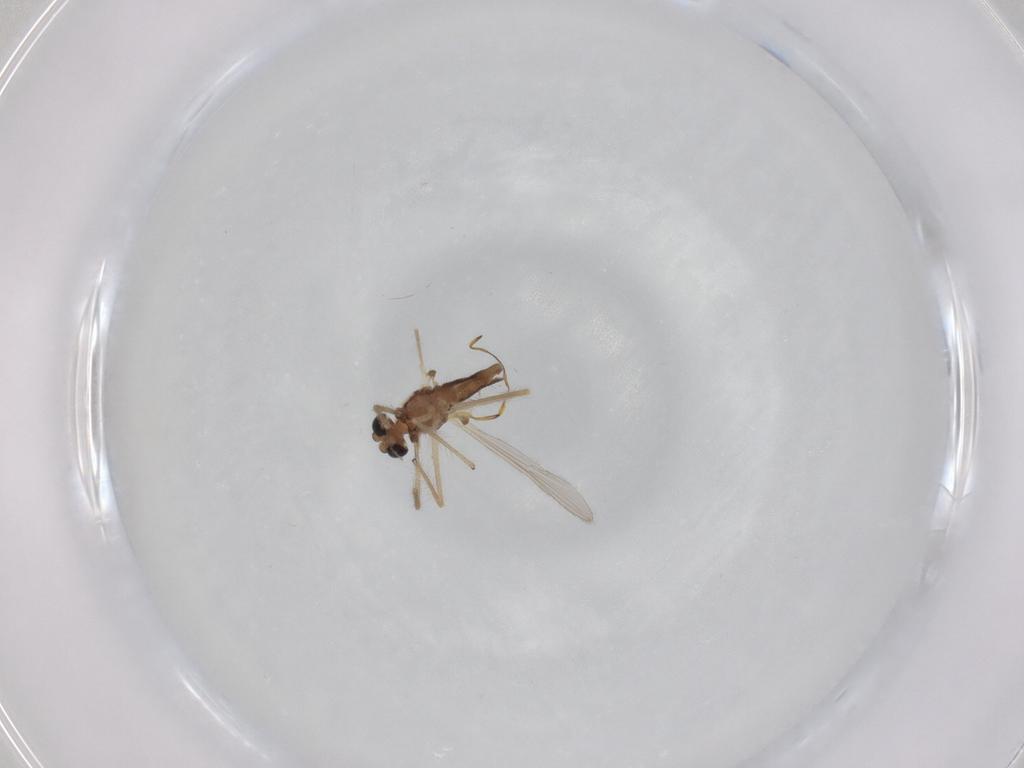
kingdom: Animalia
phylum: Arthropoda
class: Insecta
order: Diptera
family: Chironomidae
